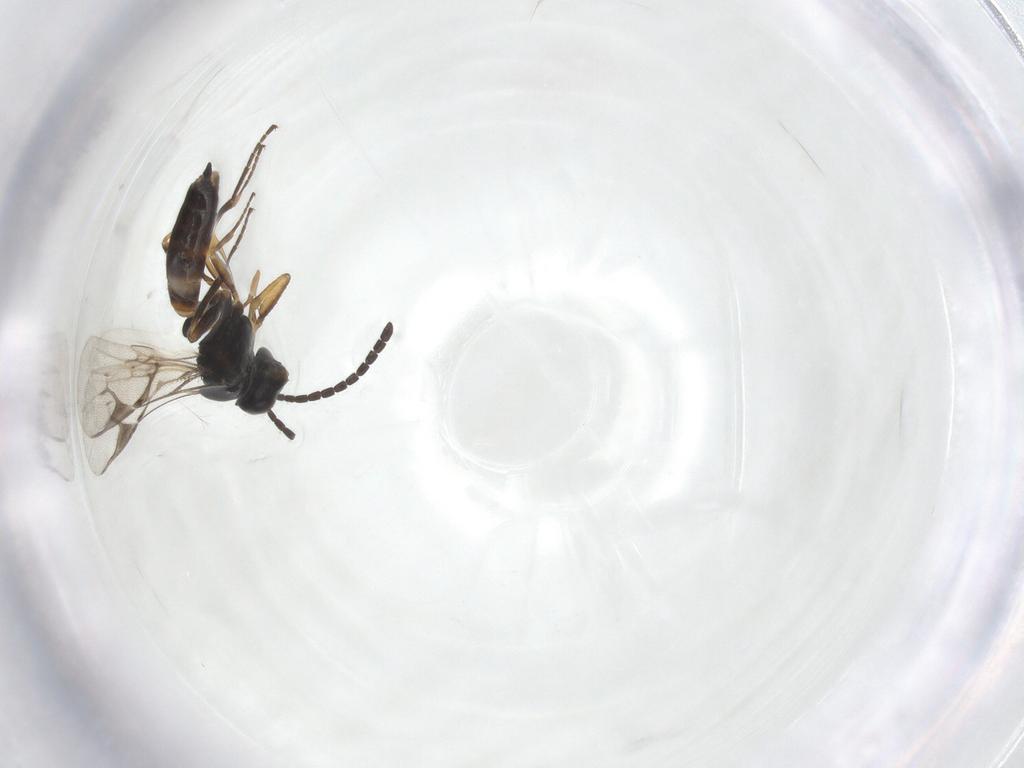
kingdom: Animalia
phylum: Arthropoda
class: Insecta
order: Hymenoptera
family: Braconidae
